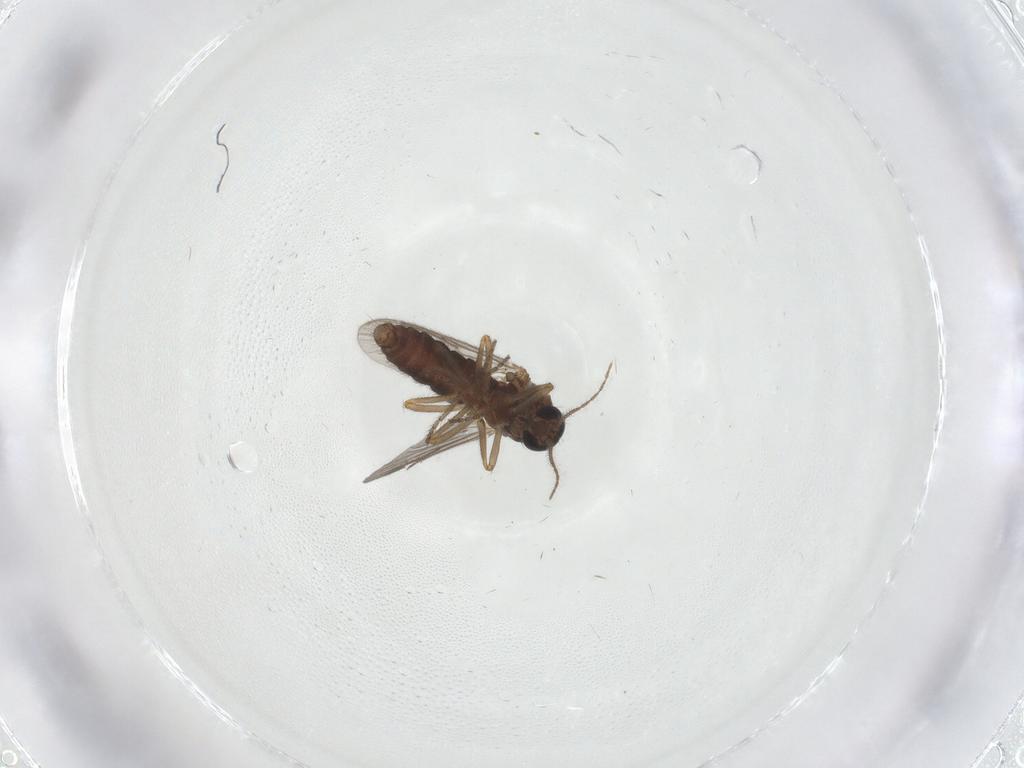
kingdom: Animalia
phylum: Arthropoda
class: Insecta
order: Diptera
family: Ceratopogonidae
